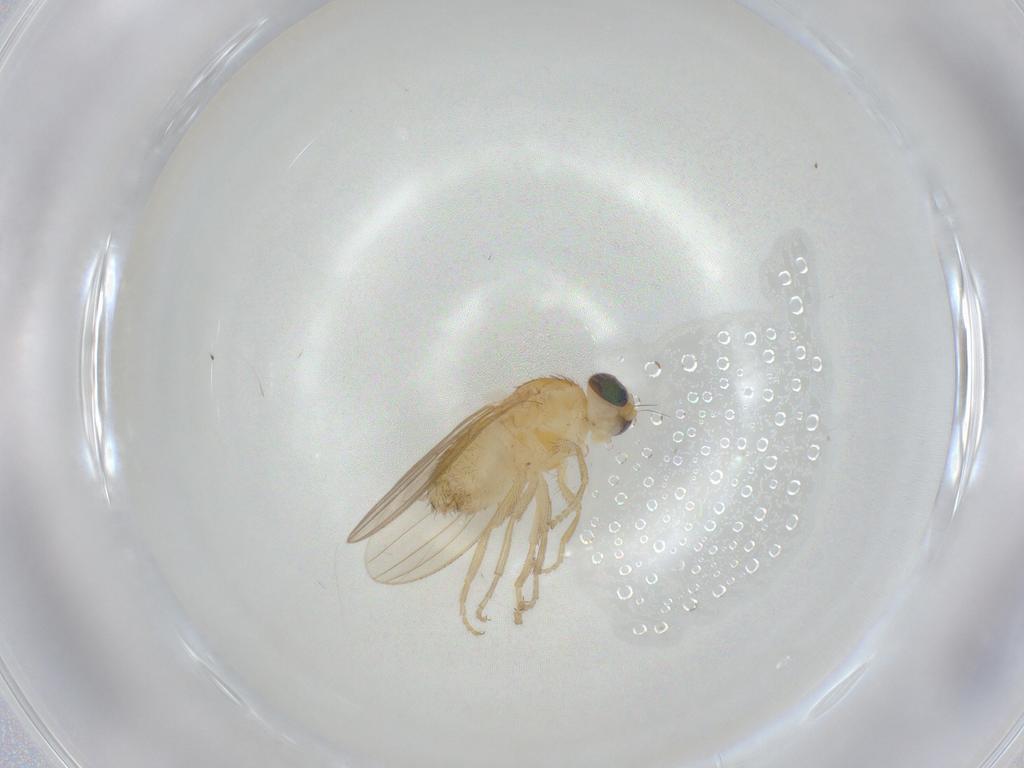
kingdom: Animalia
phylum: Arthropoda
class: Insecta
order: Diptera
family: Chyromyidae
